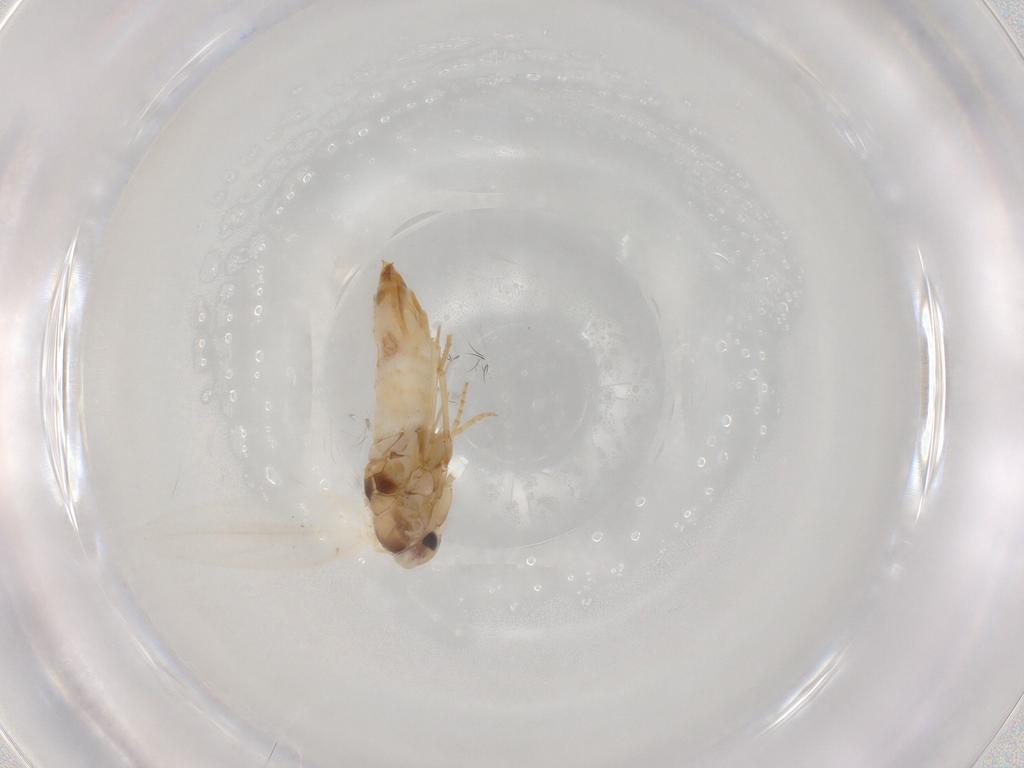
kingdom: Animalia
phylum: Arthropoda
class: Insecta
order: Lepidoptera
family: Bucculatricidae
